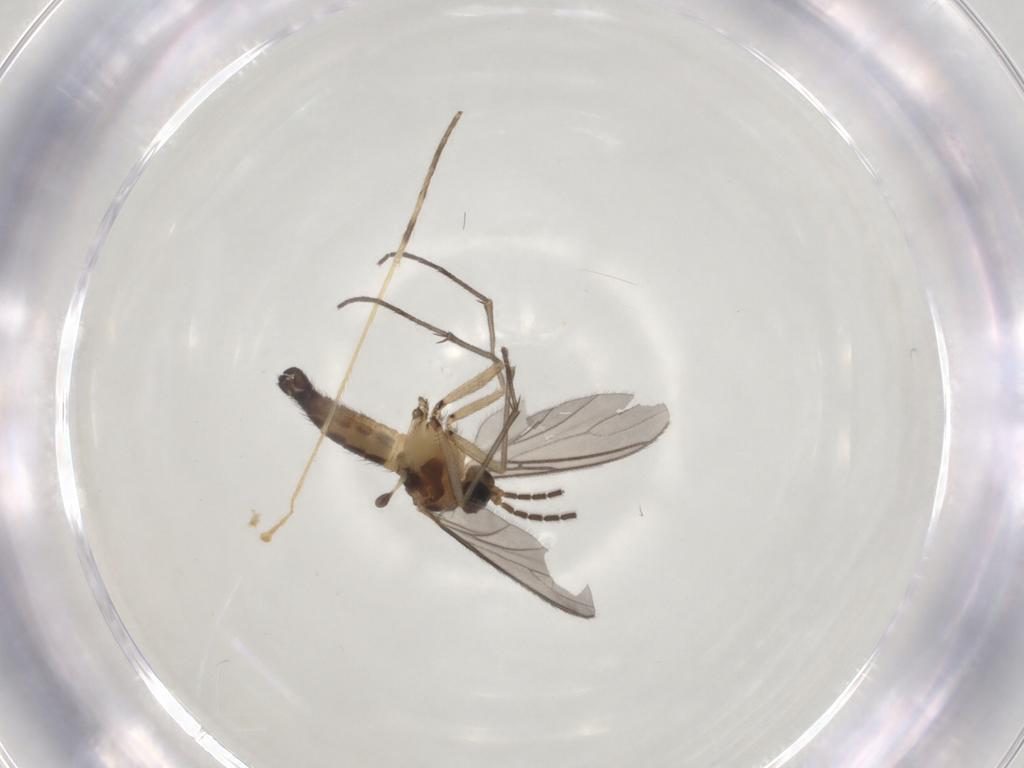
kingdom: Animalia
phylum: Arthropoda
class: Insecta
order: Diptera
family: Sciaridae
